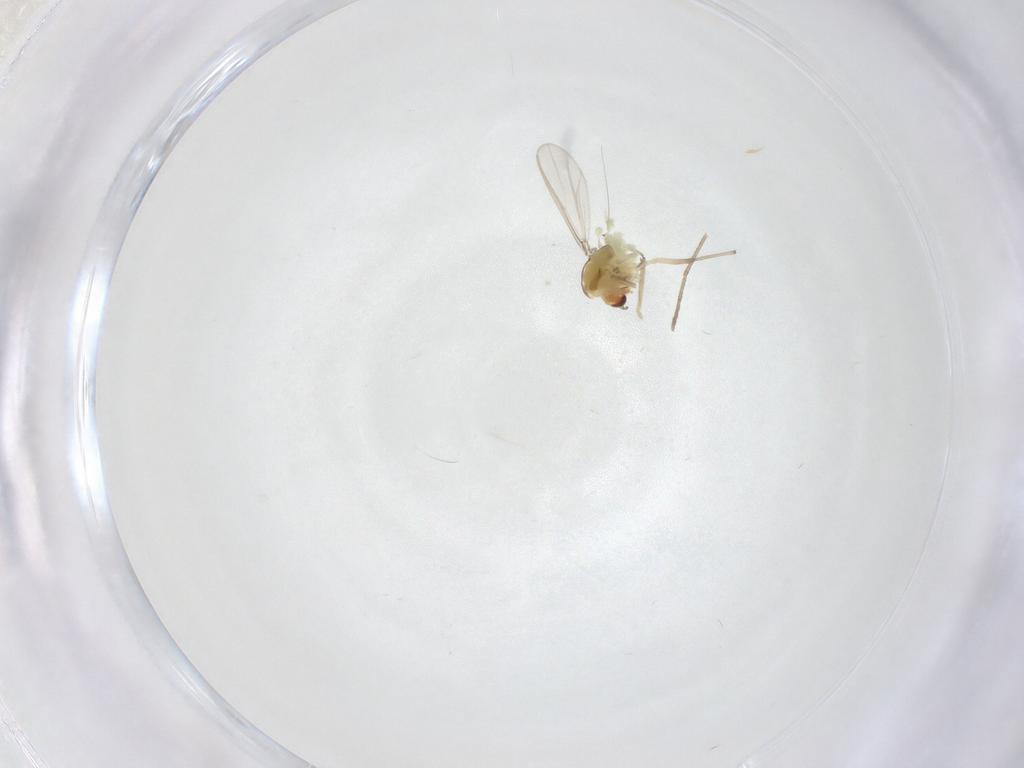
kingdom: Animalia
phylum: Arthropoda
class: Insecta
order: Diptera
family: Chironomidae
